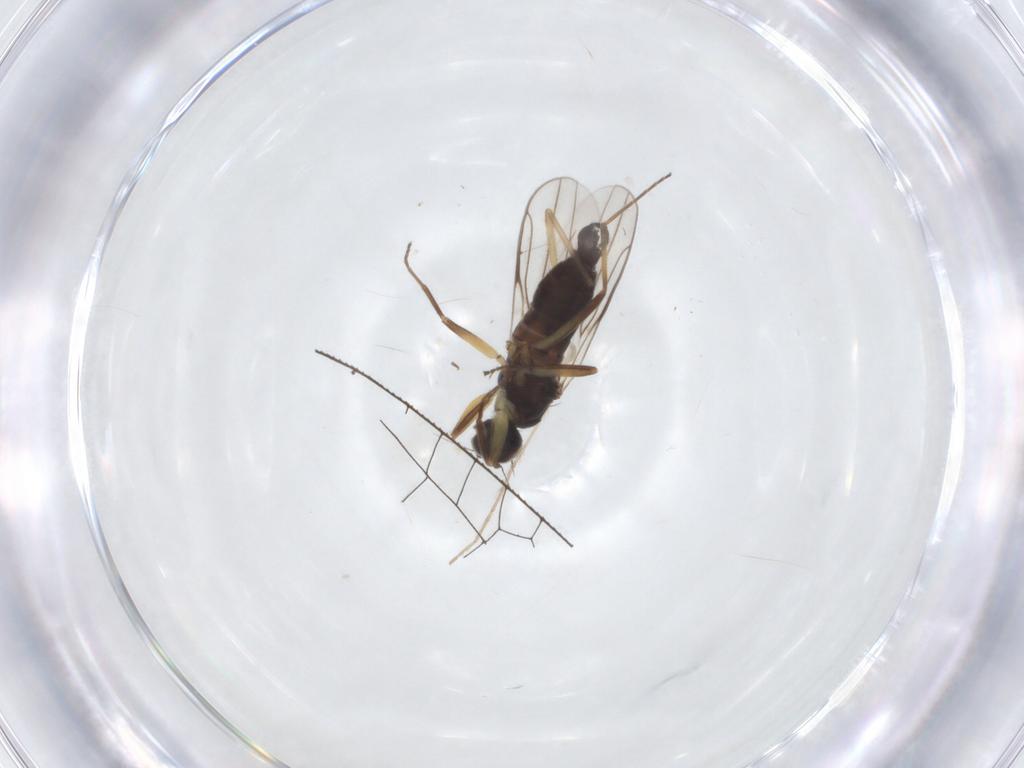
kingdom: Animalia
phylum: Arthropoda
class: Insecta
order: Diptera
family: Hybotidae
